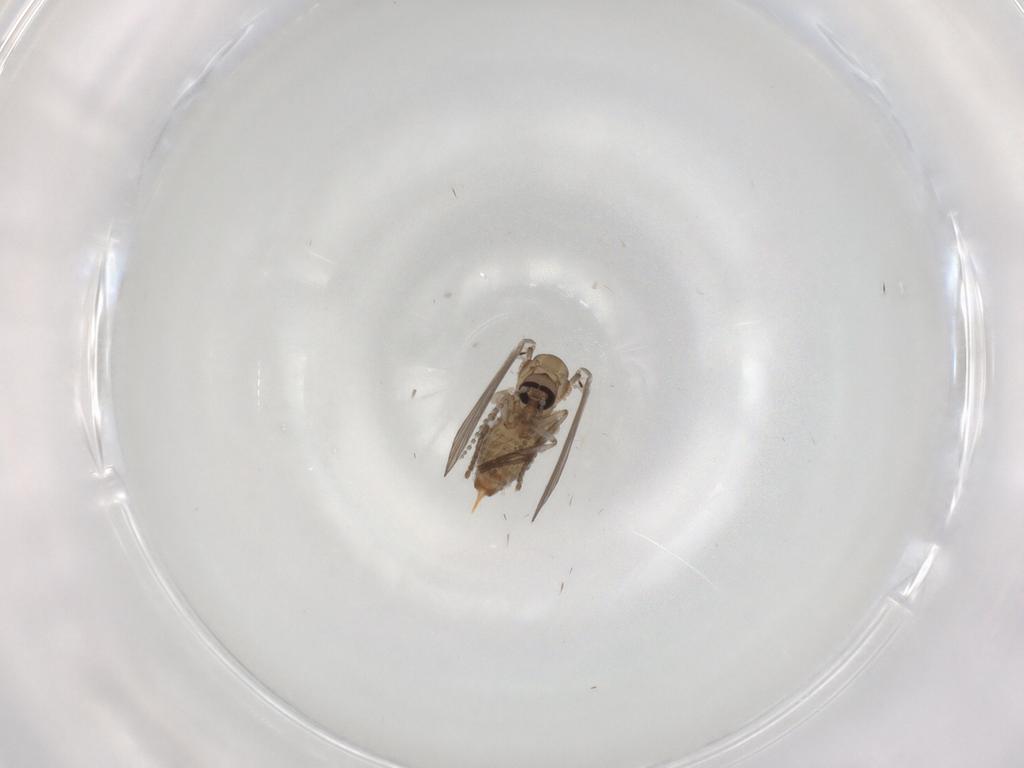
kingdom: Animalia
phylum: Arthropoda
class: Insecta
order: Diptera
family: Psychodidae
